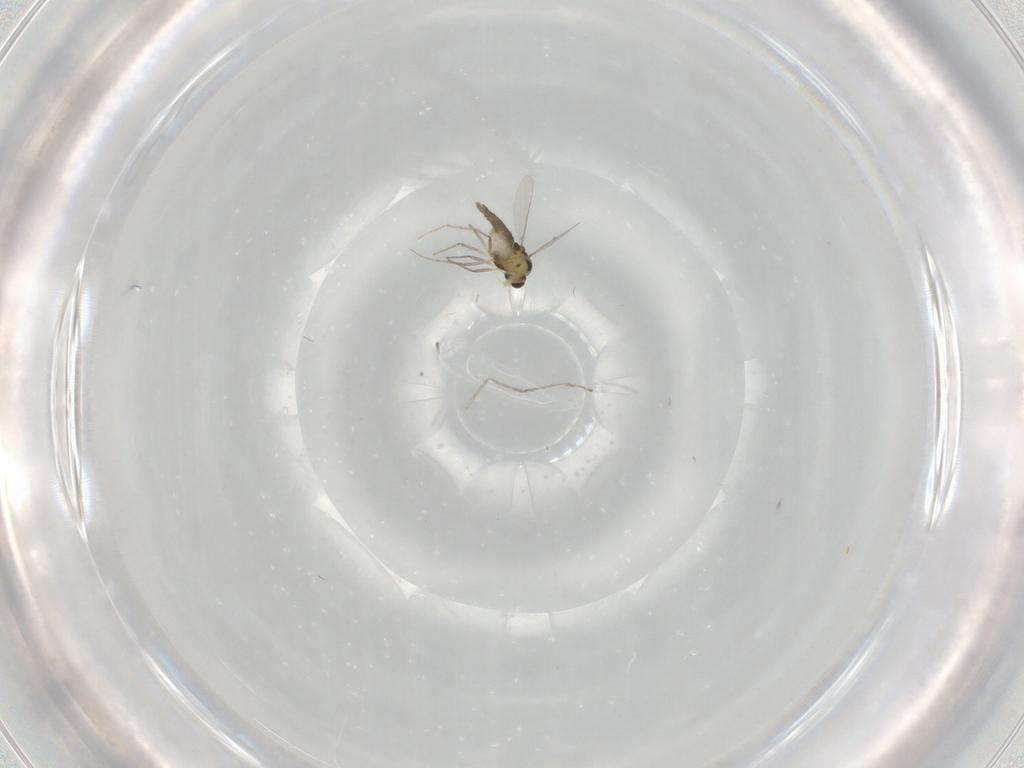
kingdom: Animalia
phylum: Arthropoda
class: Insecta
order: Diptera
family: Chironomidae
